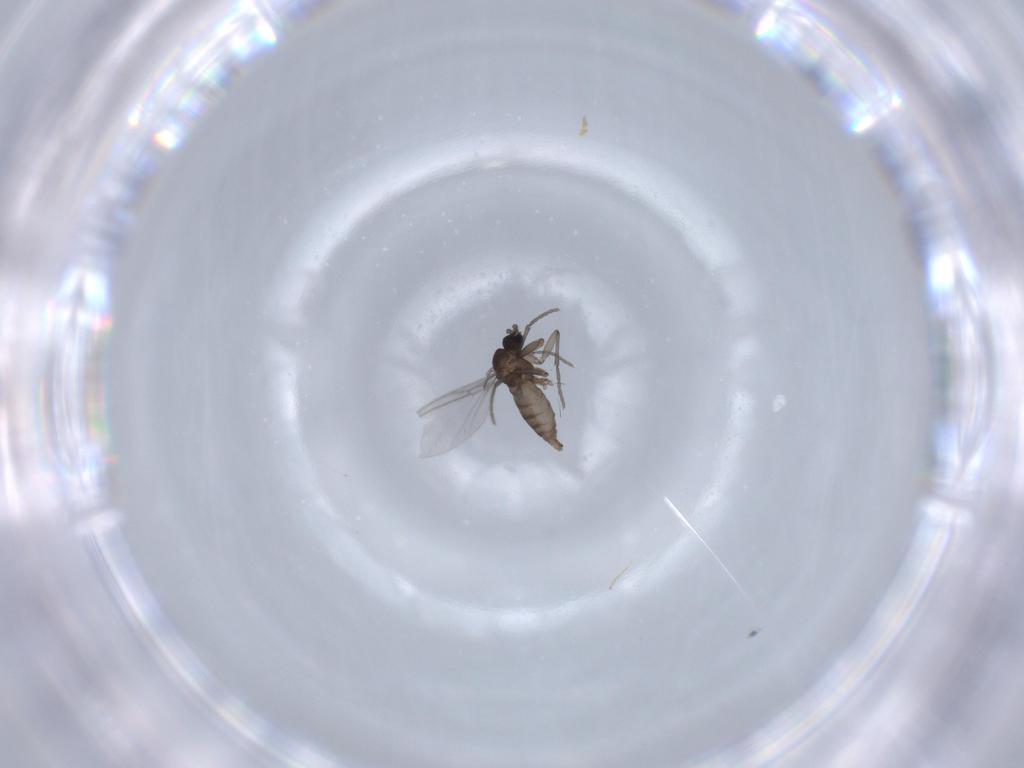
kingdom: Animalia
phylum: Arthropoda
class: Insecta
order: Diptera
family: Sciaridae
